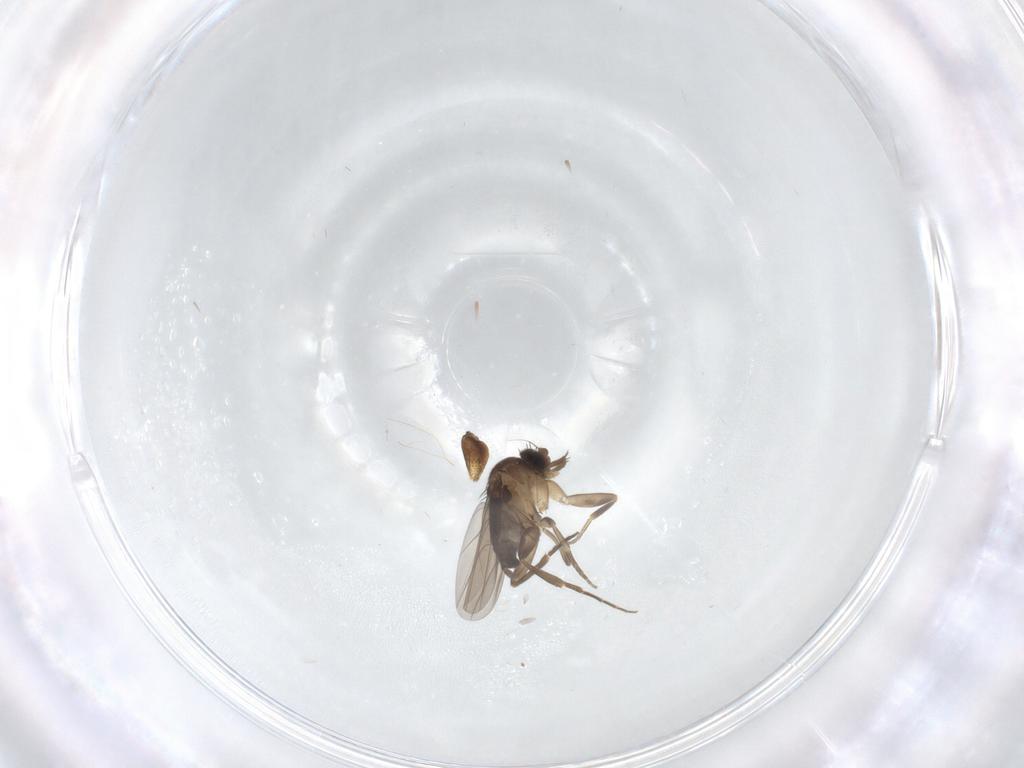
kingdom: Animalia
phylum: Arthropoda
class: Insecta
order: Diptera
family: Phoridae
